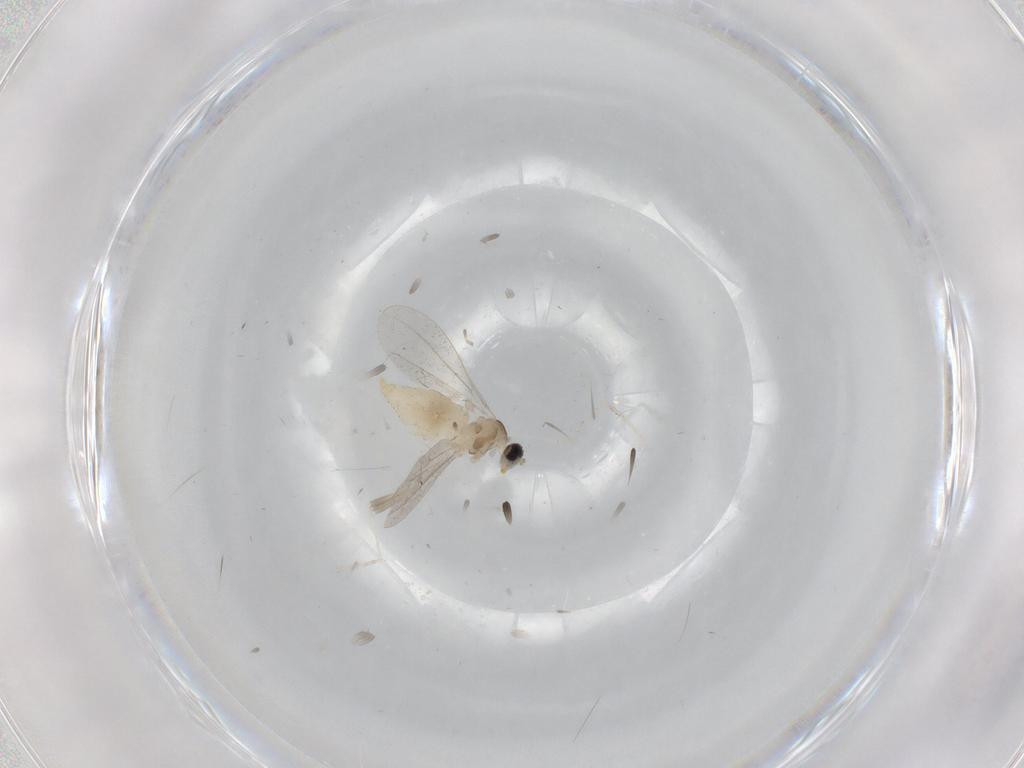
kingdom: Animalia
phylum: Arthropoda
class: Insecta
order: Diptera
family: Cecidomyiidae
